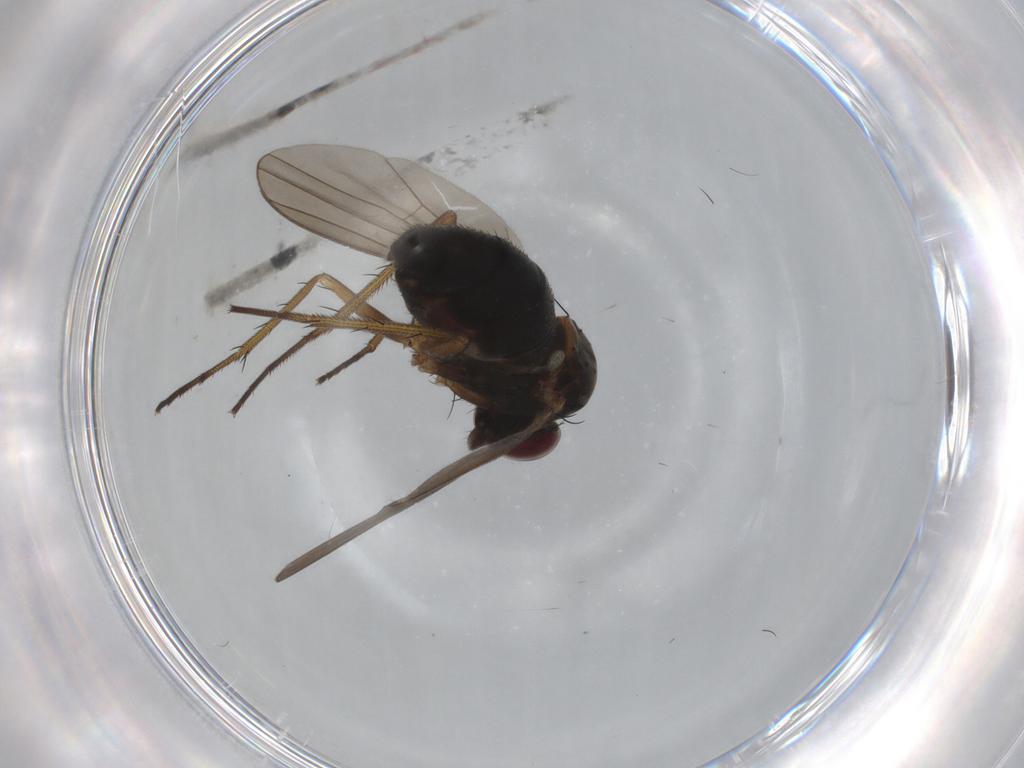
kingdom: Animalia
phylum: Arthropoda
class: Insecta
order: Diptera
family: Dolichopodidae
